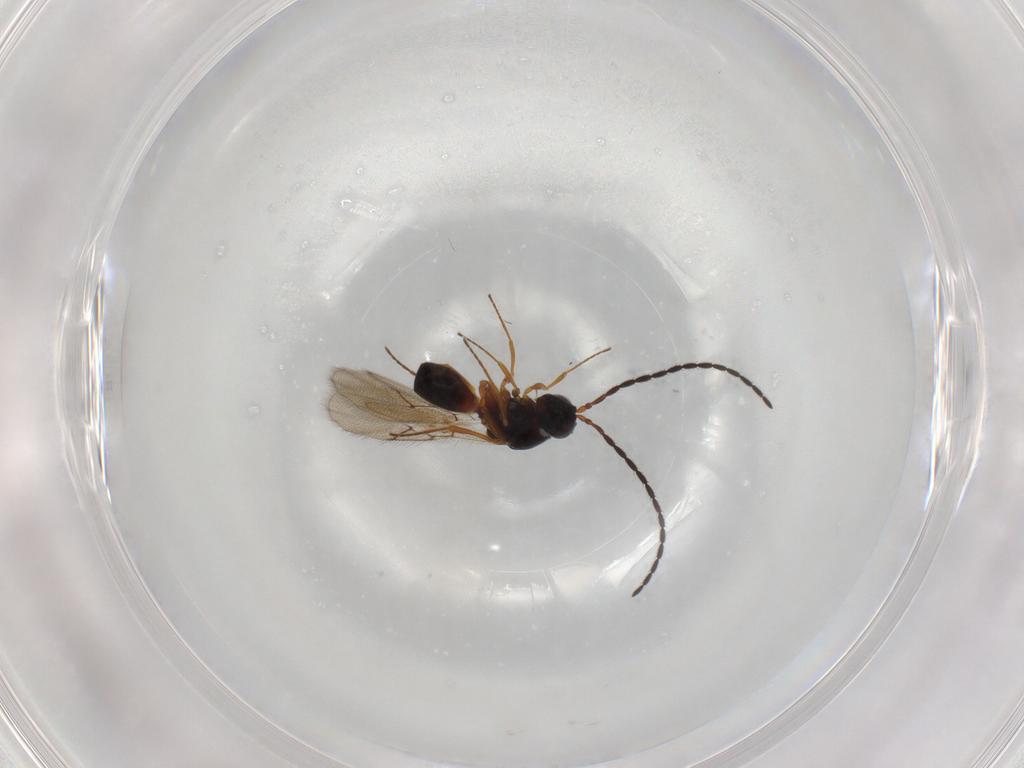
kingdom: Animalia
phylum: Arthropoda
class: Insecta
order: Hymenoptera
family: Figitidae
